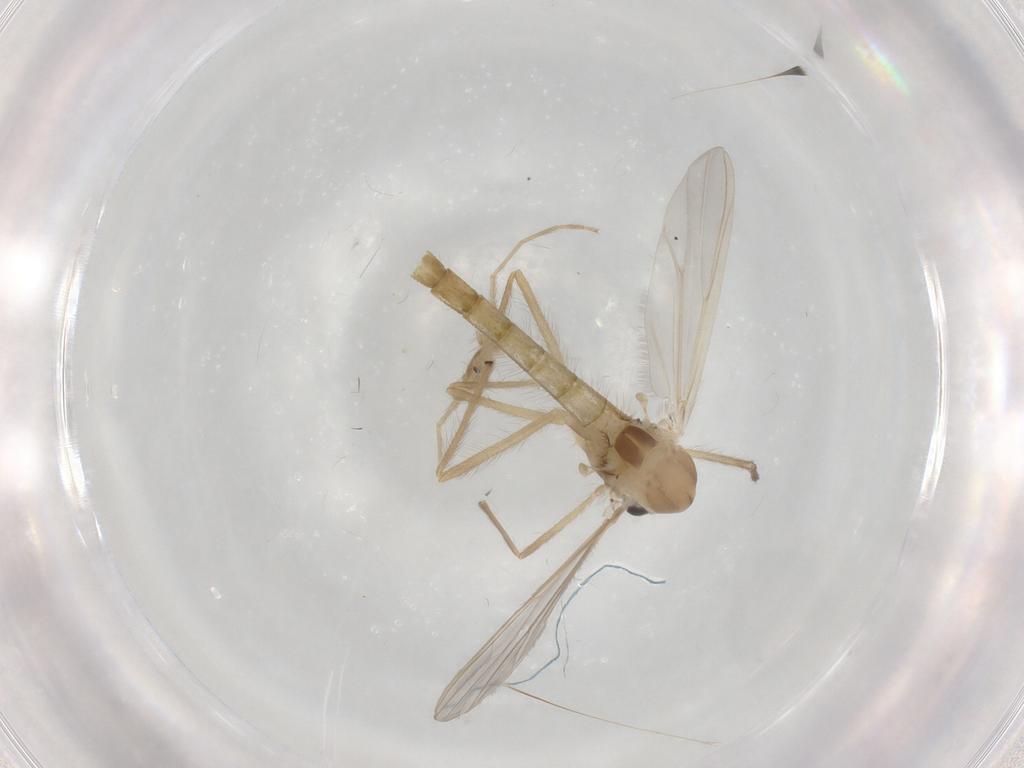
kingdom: Animalia
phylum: Arthropoda
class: Insecta
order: Diptera
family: Chironomidae
